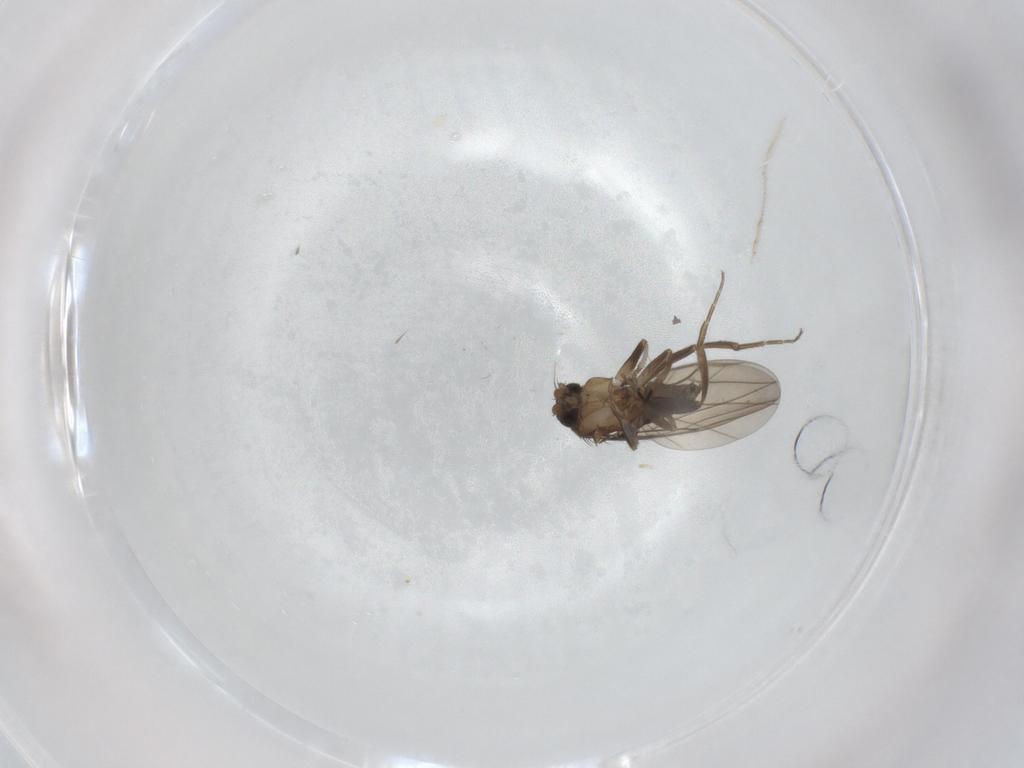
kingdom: Animalia
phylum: Arthropoda
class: Insecta
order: Diptera
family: Phoridae
